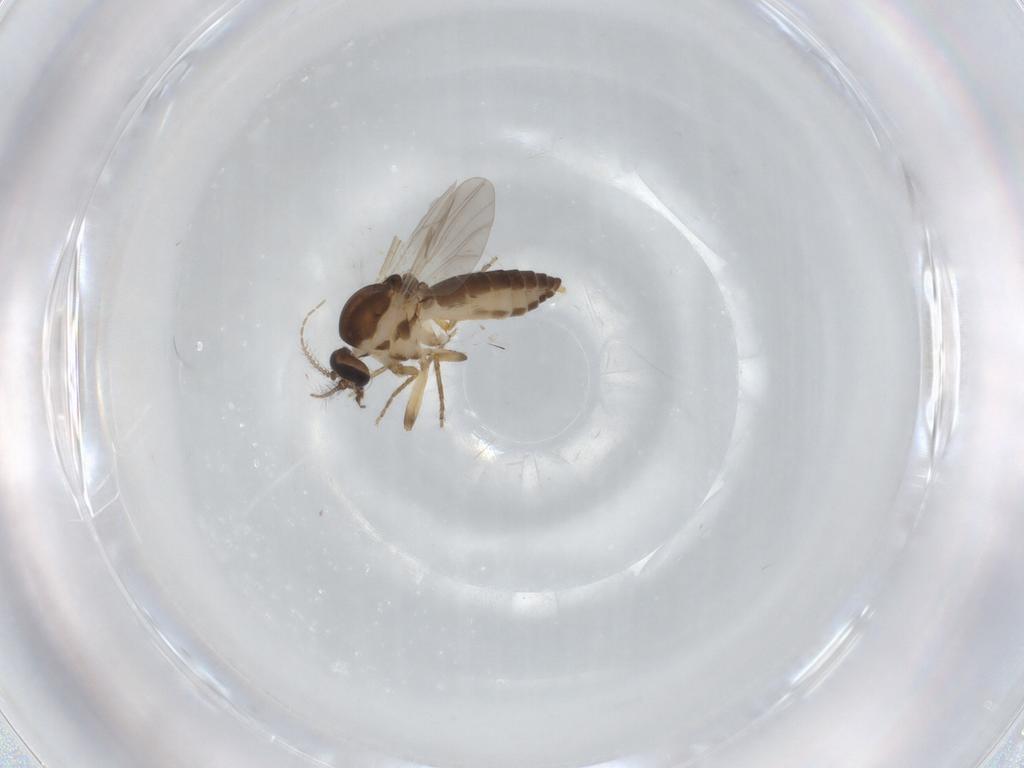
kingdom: Animalia
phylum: Arthropoda
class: Insecta
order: Diptera
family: Ceratopogonidae
